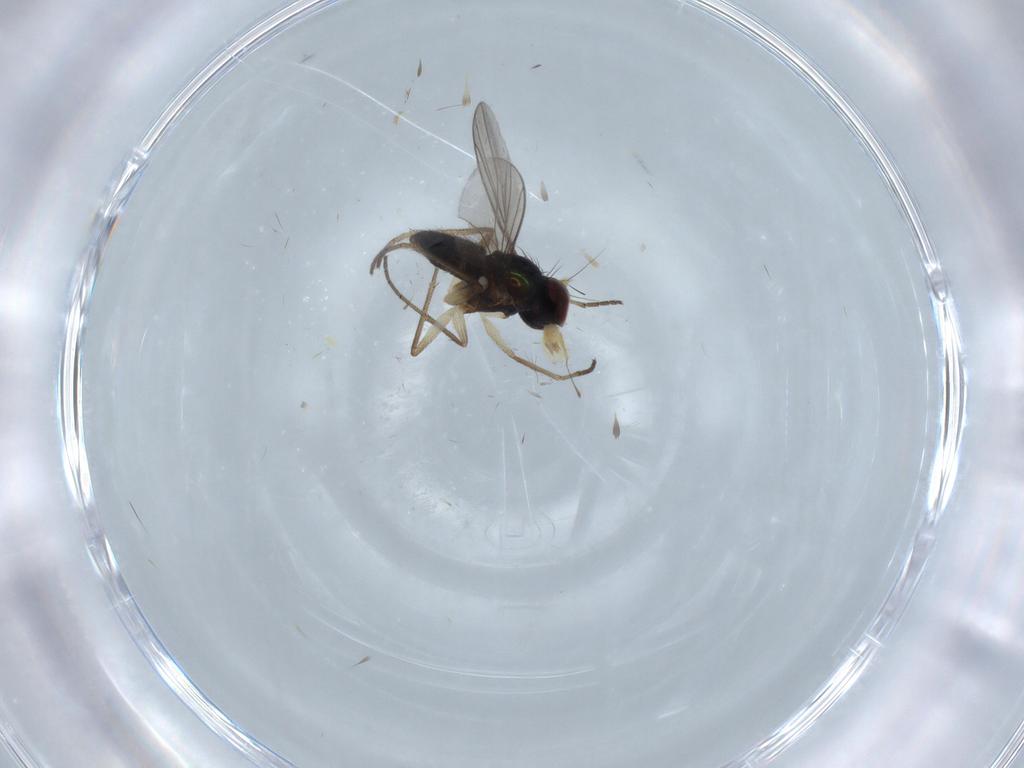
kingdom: Animalia
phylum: Arthropoda
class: Insecta
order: Diptera
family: Dolichopodidae
